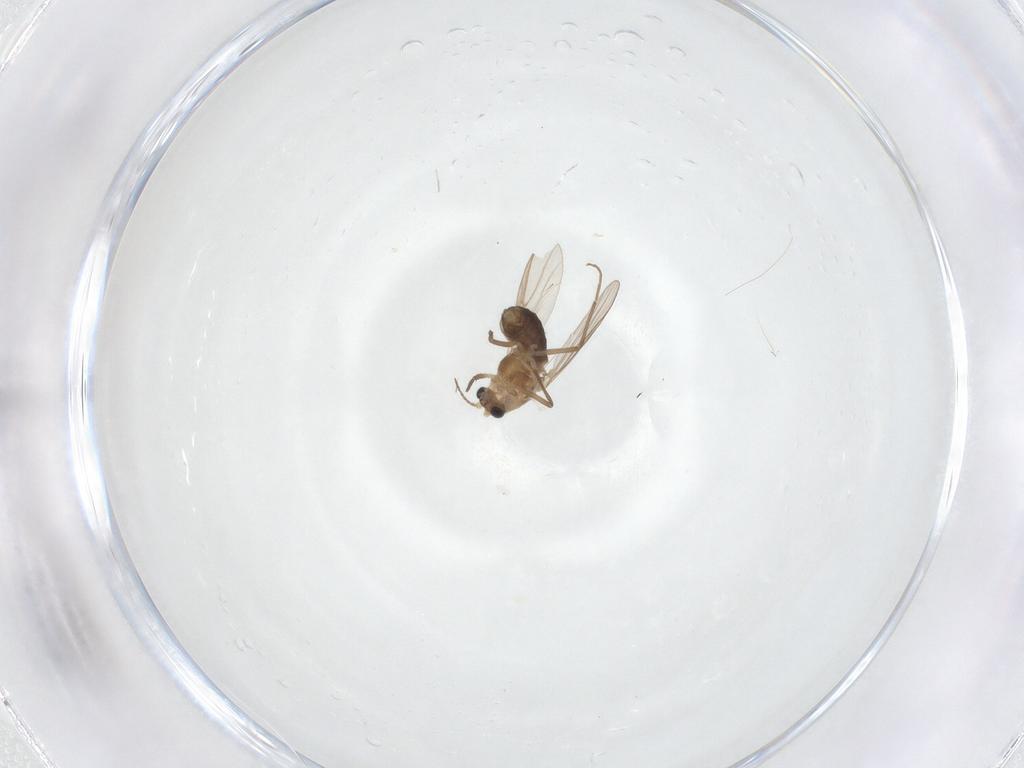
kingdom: Animalia
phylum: Arthropoda
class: Insecta
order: Diptera
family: Chironomidae
